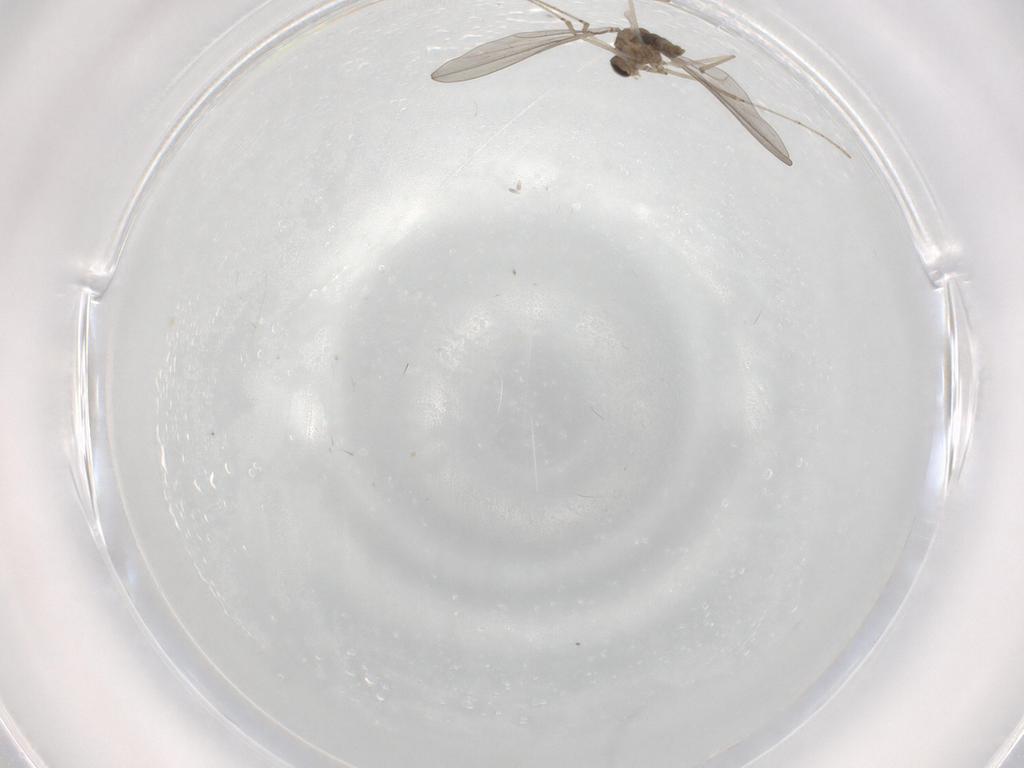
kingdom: Animalia
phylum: Arthropoda
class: Insecta
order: Diptera
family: Cecidomyiidae
